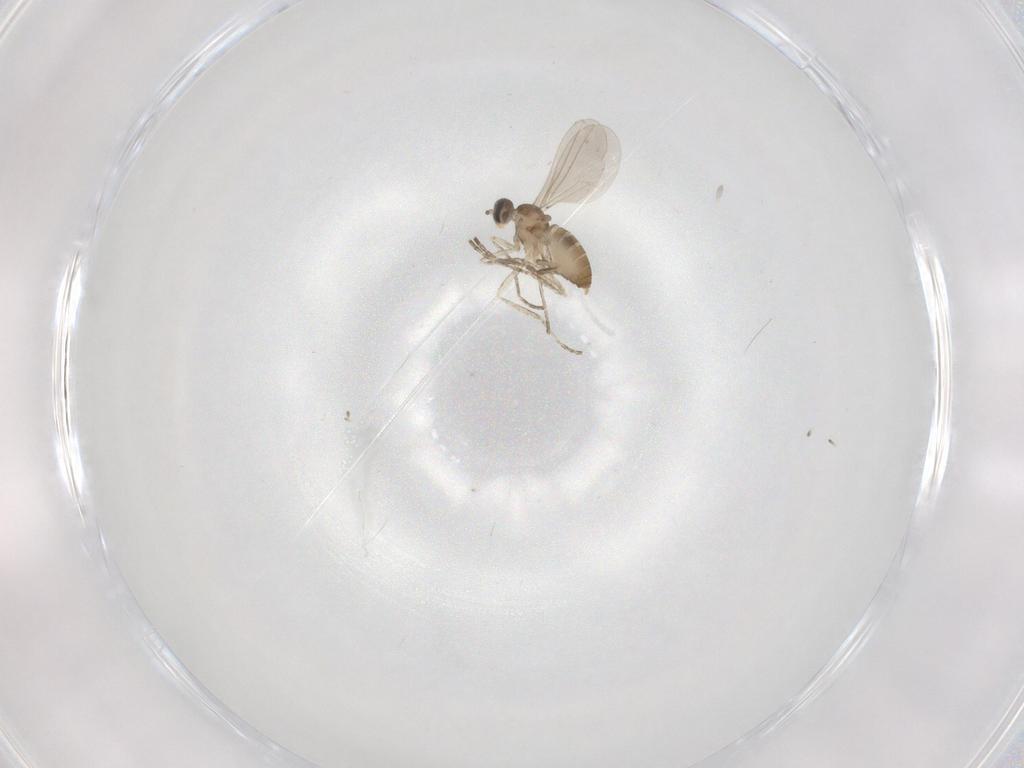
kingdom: Animalia
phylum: Arthropoda
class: Insecta
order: Diptera
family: Cecidomyiidae
